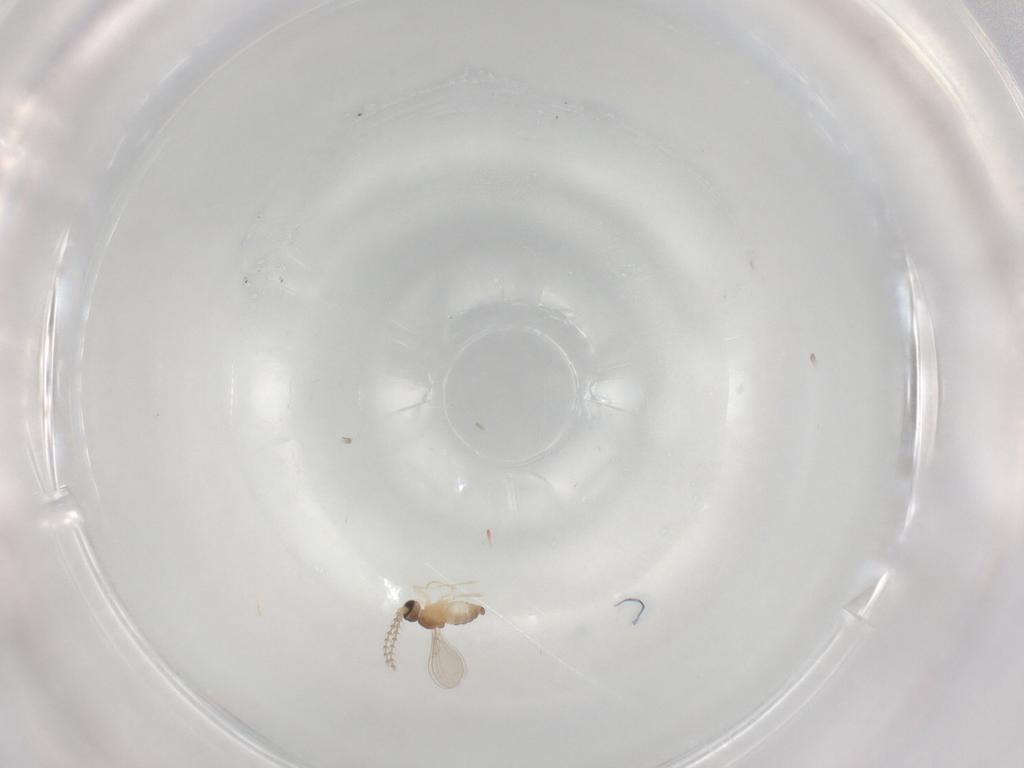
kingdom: Animalia
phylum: Arthropoda
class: Insecta
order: Diptera
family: Cecidomyiidae
